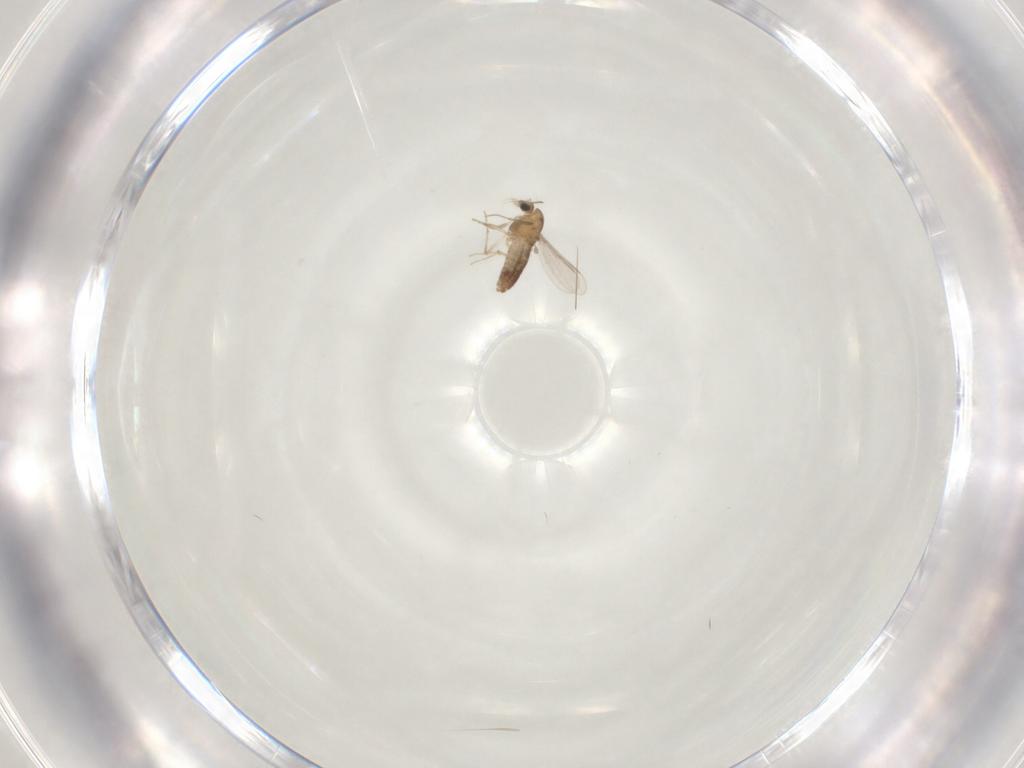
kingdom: Animalia
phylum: Arthropoda
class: Insecta
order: Diptera
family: Chironomidae
